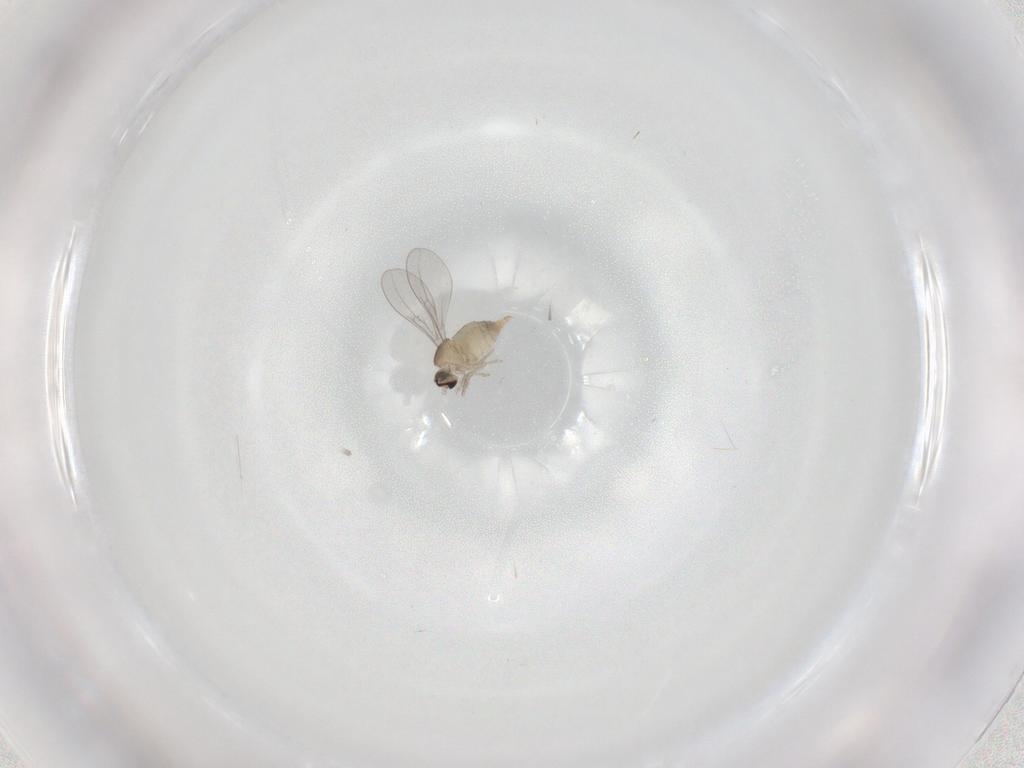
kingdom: Animalia
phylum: Arthropoda
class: Insecta
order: Diptera
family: Cecidomyiidae
